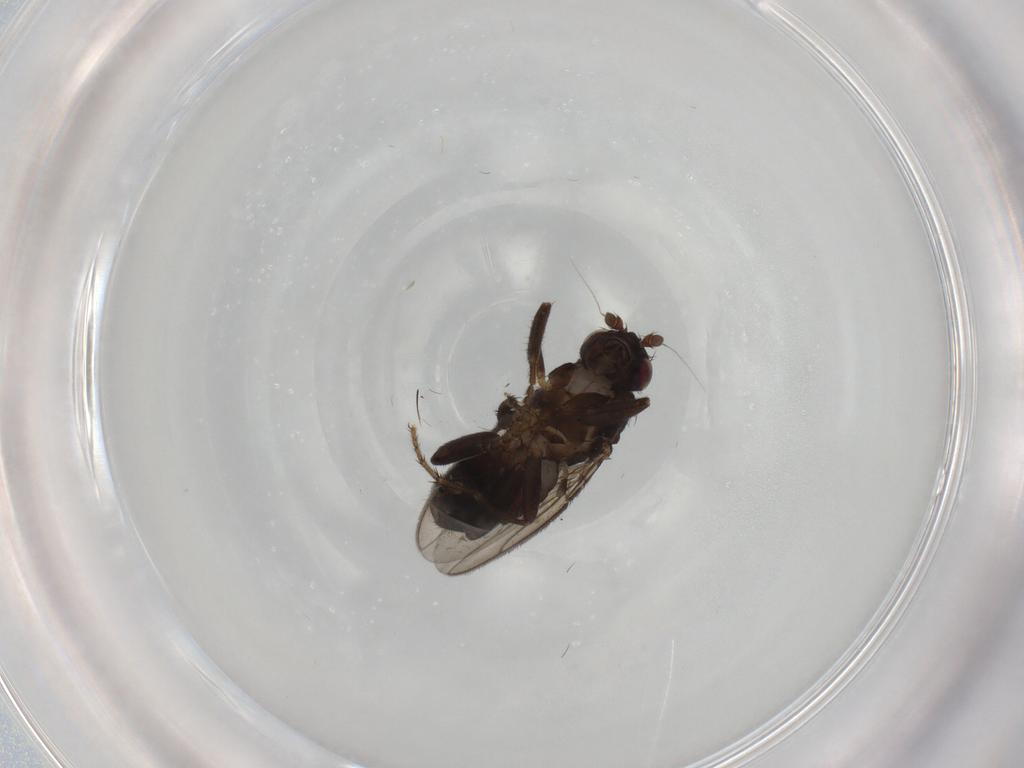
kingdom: Animalia
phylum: Arthropoda
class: Insecta
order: Diptera
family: Sphaeroceridae
